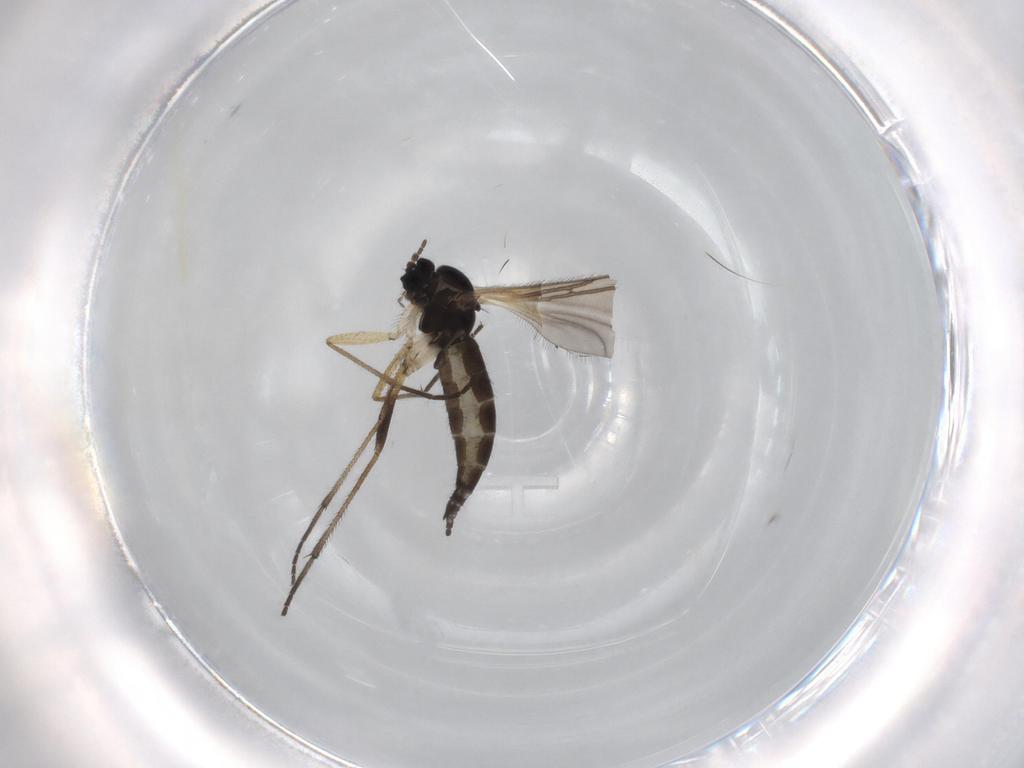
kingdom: Animalia
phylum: Arthropoda
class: Insecta
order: Diptera
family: Sciaridae
